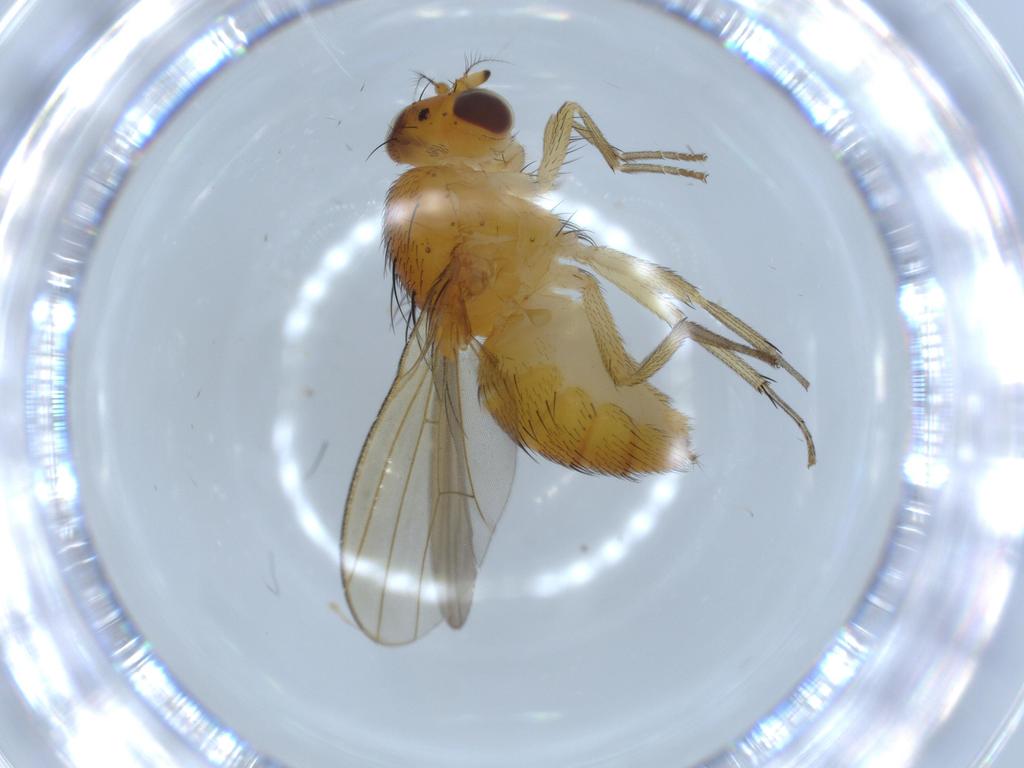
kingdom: Animalia
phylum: Arthropoda
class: Insecta
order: Diptera
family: Lauxaniidae
